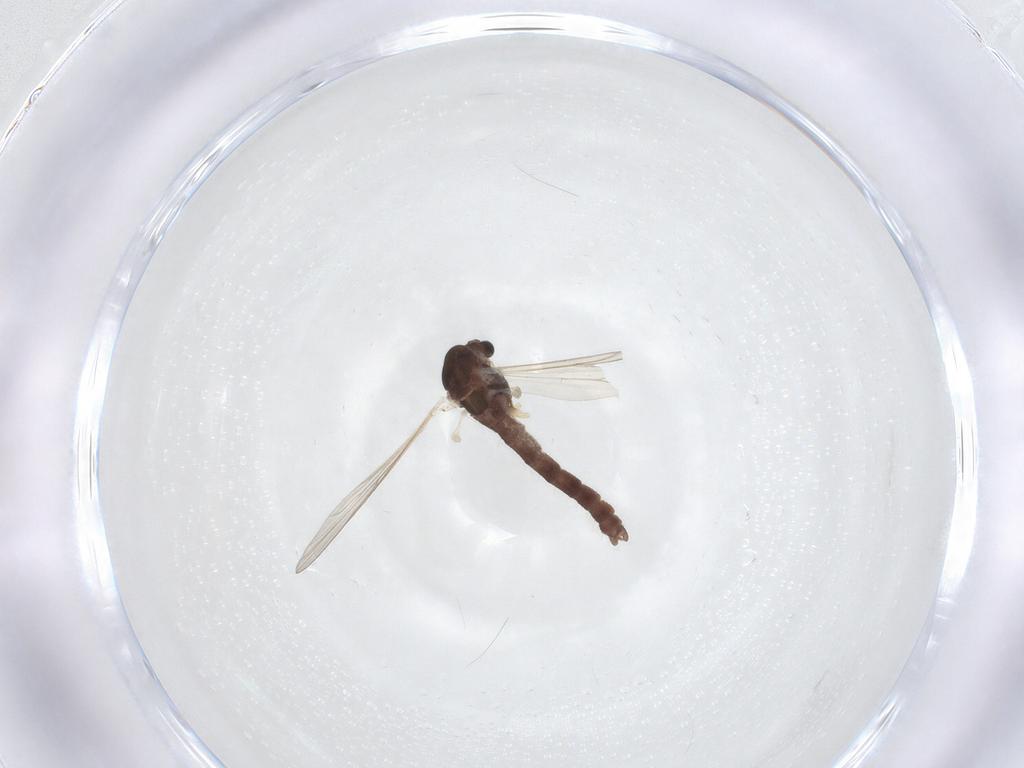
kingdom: Animalia
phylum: Arthropoda
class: Insecta
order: Diptera
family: Chironomidae
